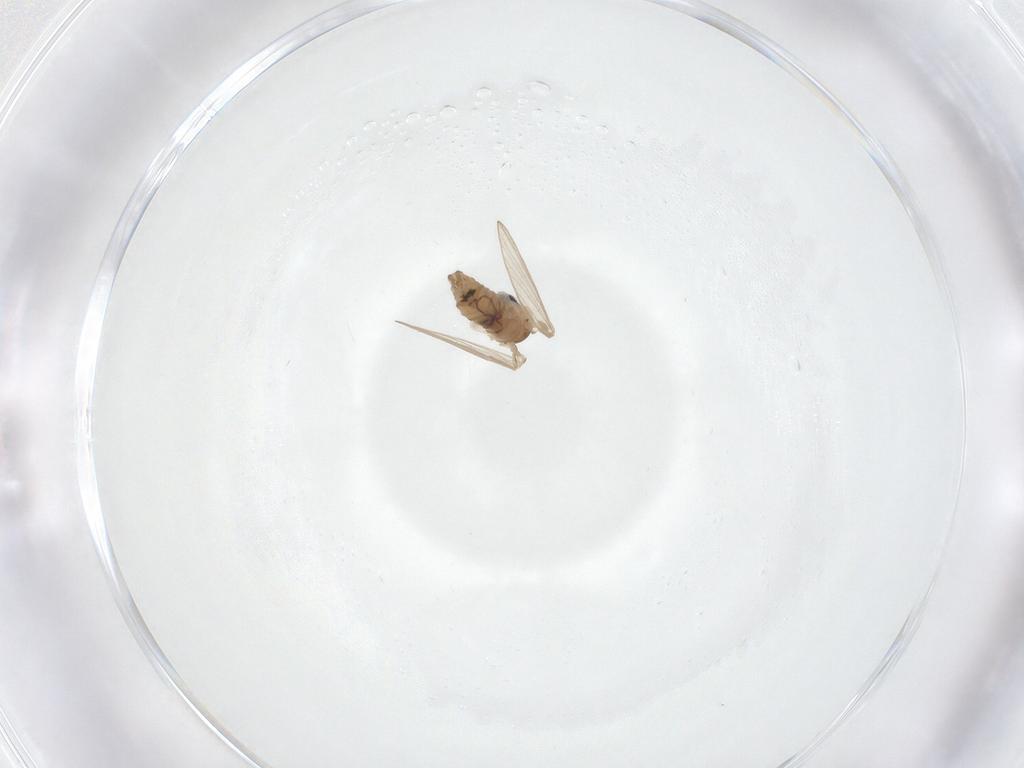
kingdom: Animalia
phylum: Arthropoda
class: Insecta
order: Diptera
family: Psychodidae
